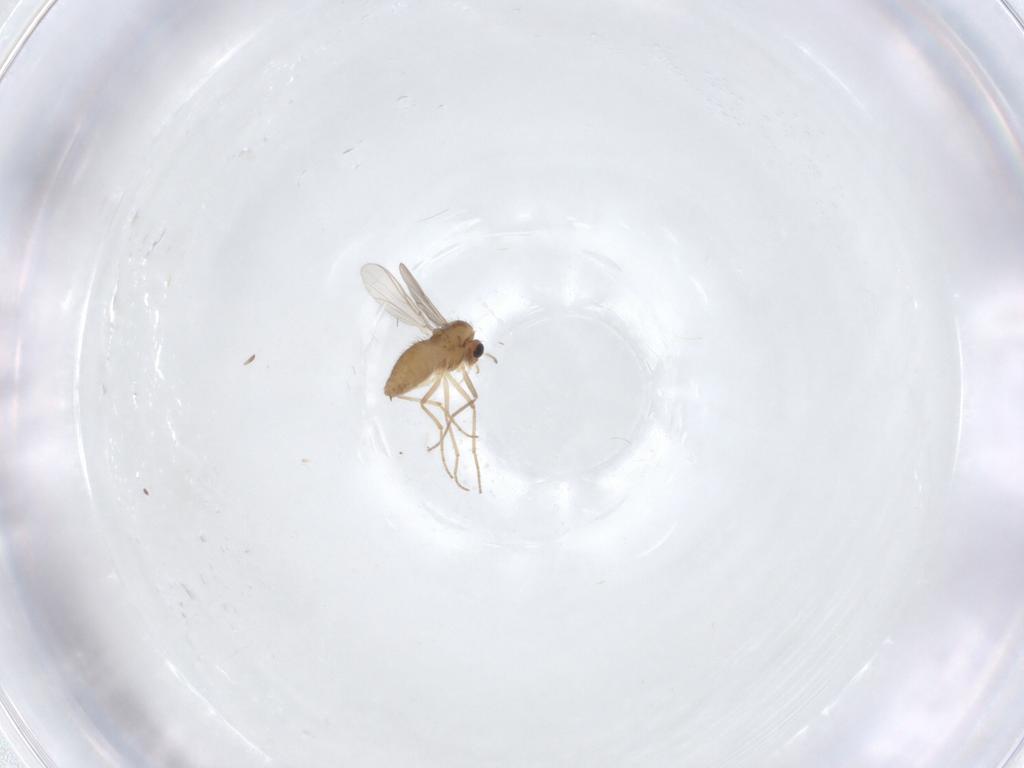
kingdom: Animalia
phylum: Arthropoda
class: Insecta
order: Diptera
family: Chironomidae
